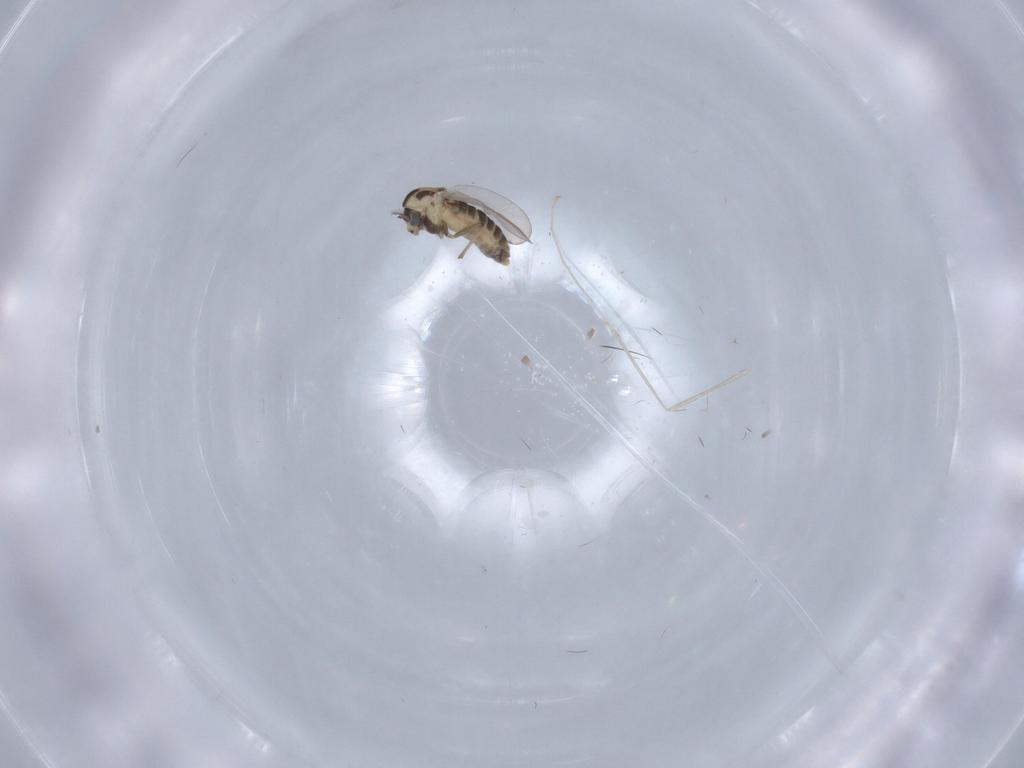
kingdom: Animalia
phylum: Arthropoda
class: Insecta
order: Diptera
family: Chironomidae
